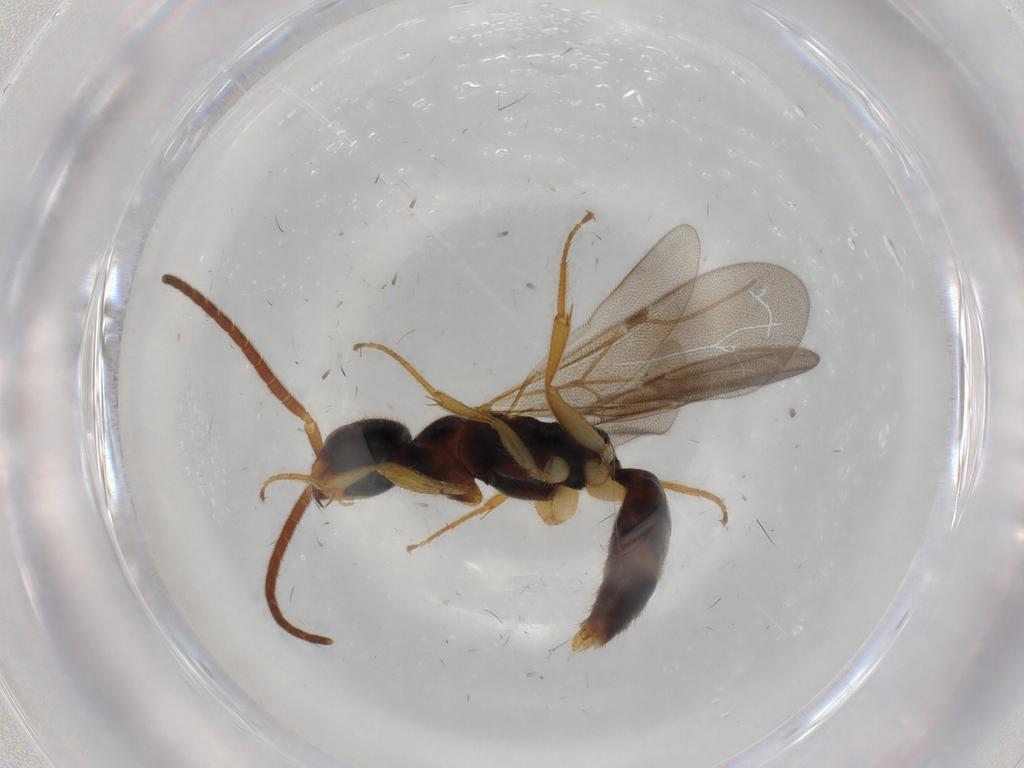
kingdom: Animalia
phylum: Arthropoda
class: Insecta
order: Hymenoptera
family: Bethylidae
